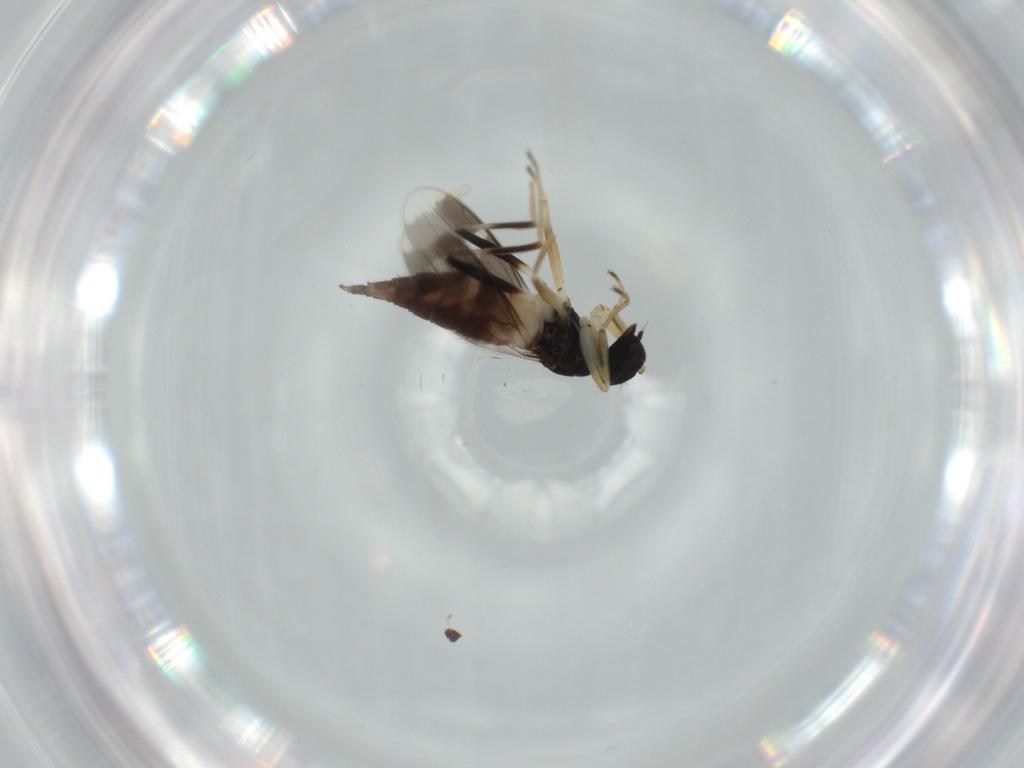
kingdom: Animalia
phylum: Arthropoda
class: Insecta
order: Diptera
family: Hybotidae
